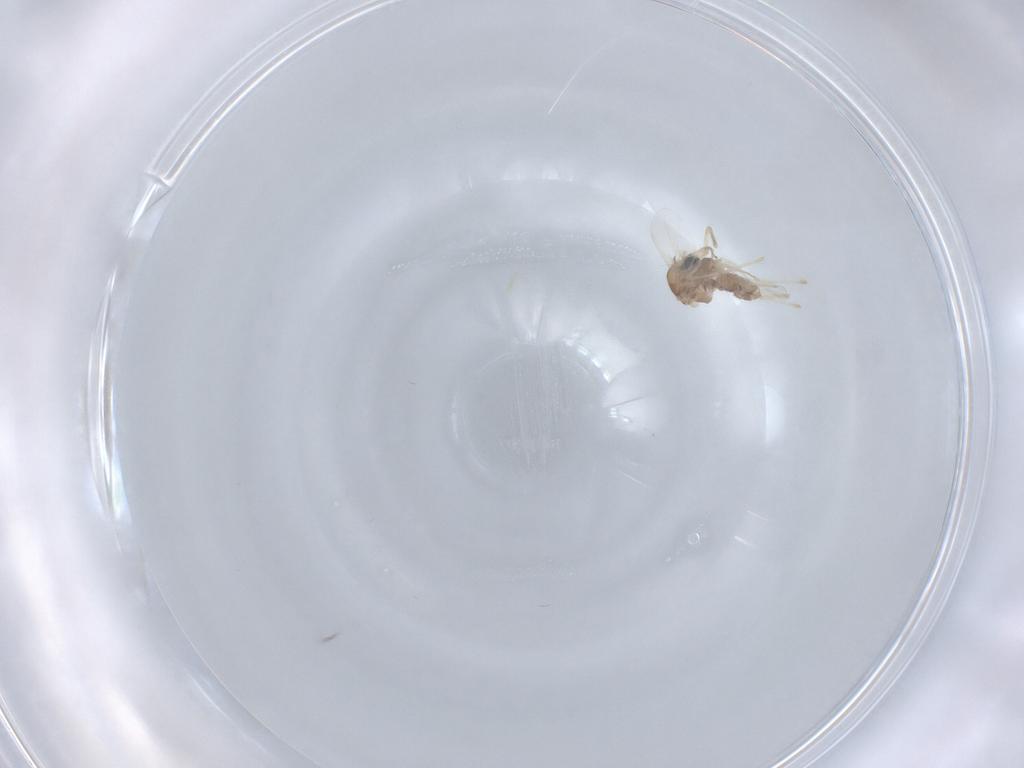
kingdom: Animalia
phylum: Arthropoda
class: Insecta
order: Diptera
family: Chironomidae
